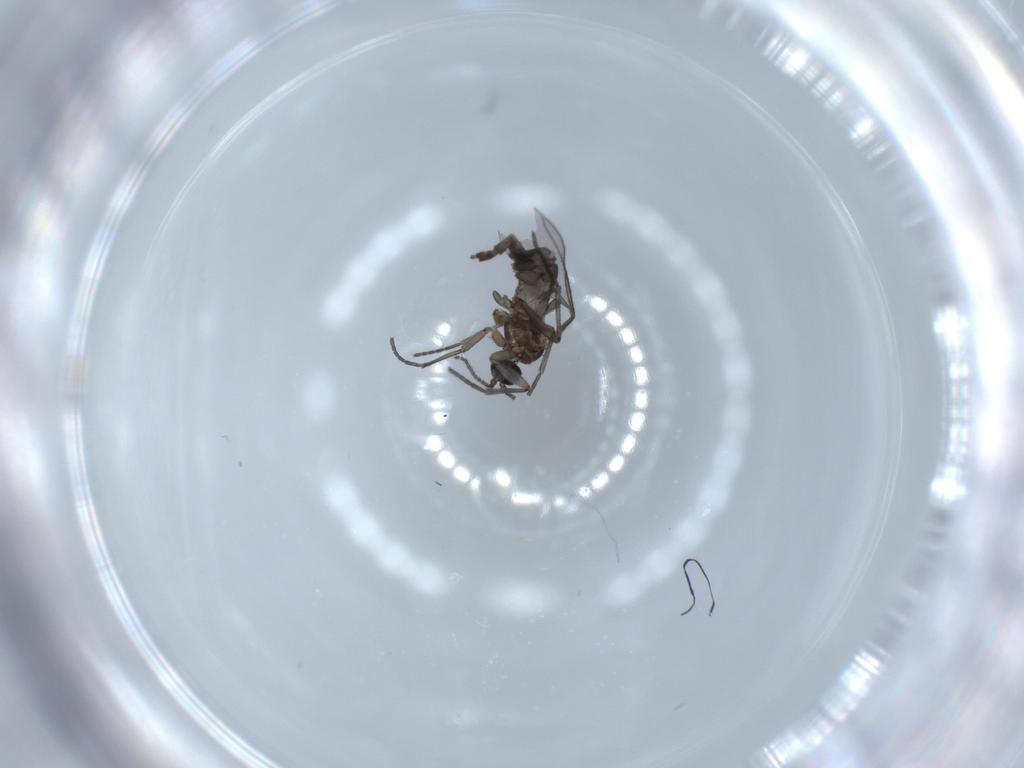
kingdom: Animalia
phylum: Arthropoda
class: Insecta
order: Diptera
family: Psychodidae
